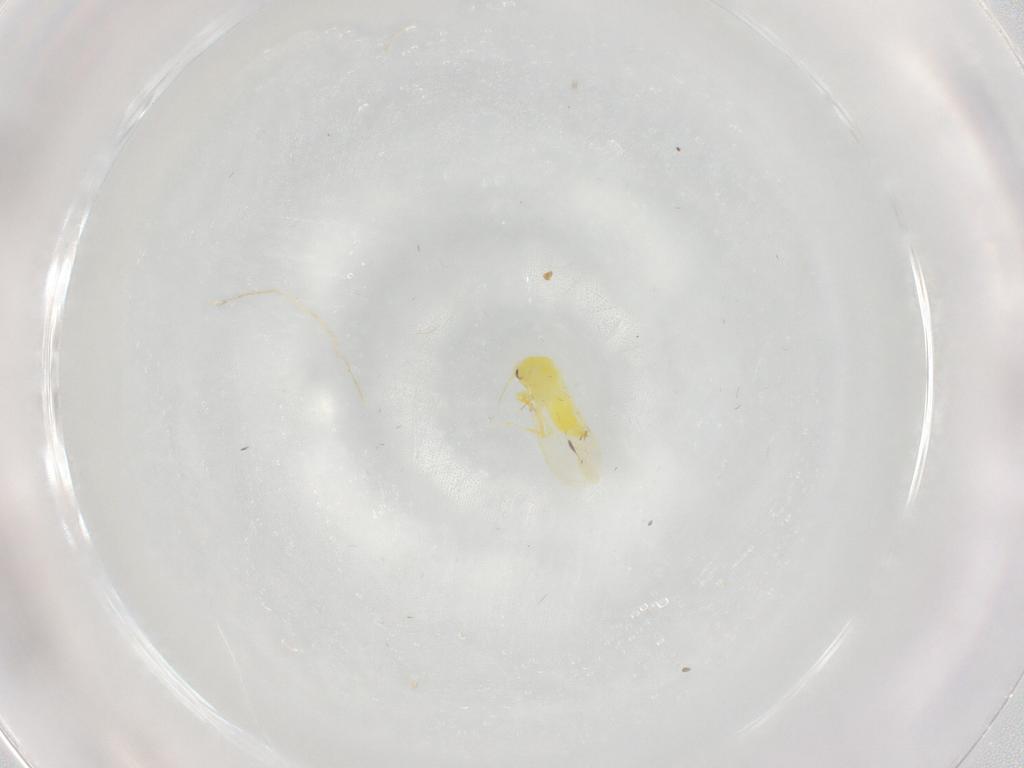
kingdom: Animalia
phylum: Arthropoda
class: Insecta
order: Hemiptera
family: Aleyrodidae
